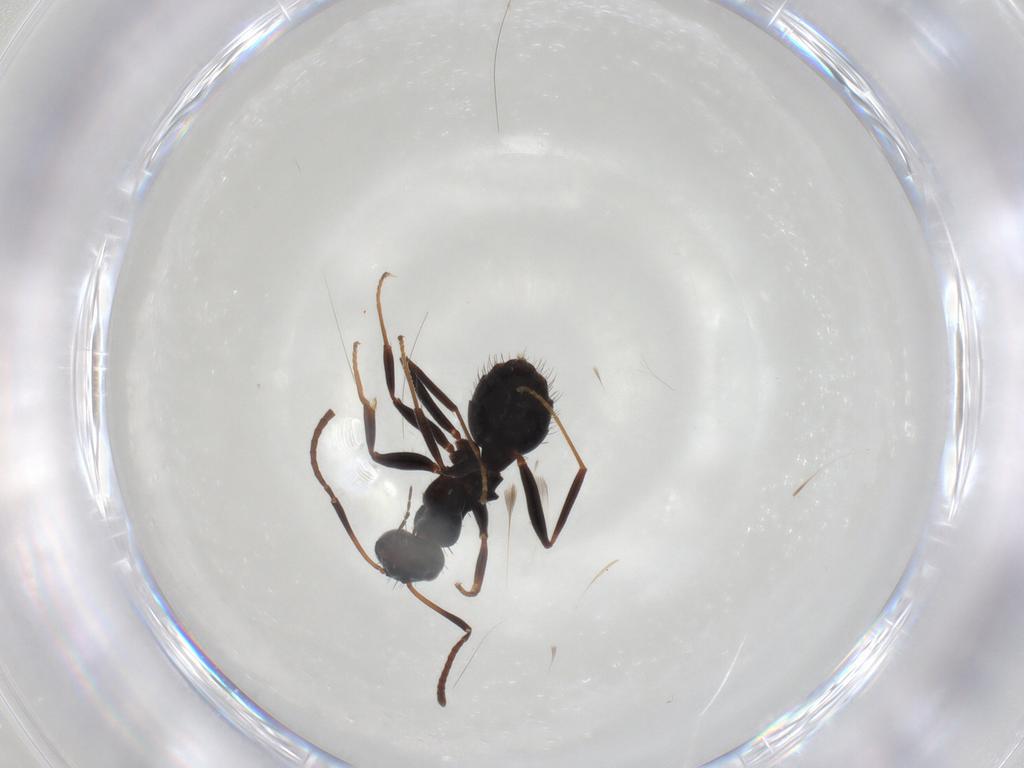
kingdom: Animalia
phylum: Arthropoda
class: Insecta
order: Hymenoptera
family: Formicidae
